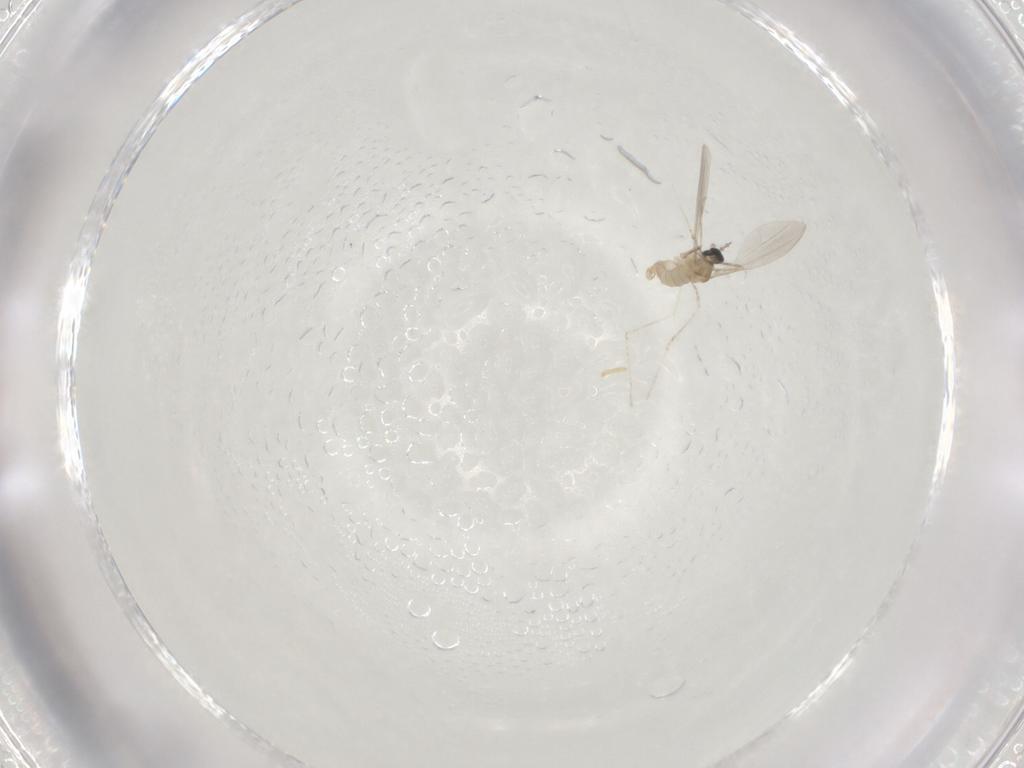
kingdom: Animalia
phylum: Arthropoda
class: Insecta
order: Diptera
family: Cecidomyiidae
